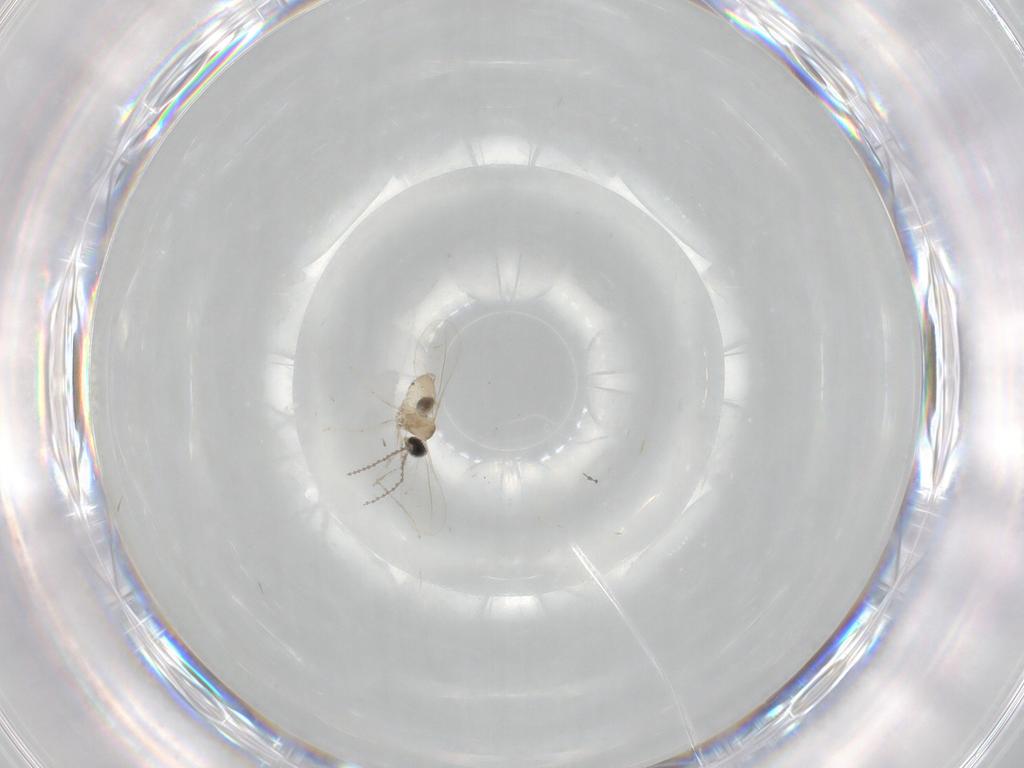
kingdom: Animalia
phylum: Arthropoda
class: Insecta
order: Diptera
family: Cecidomyiidae
